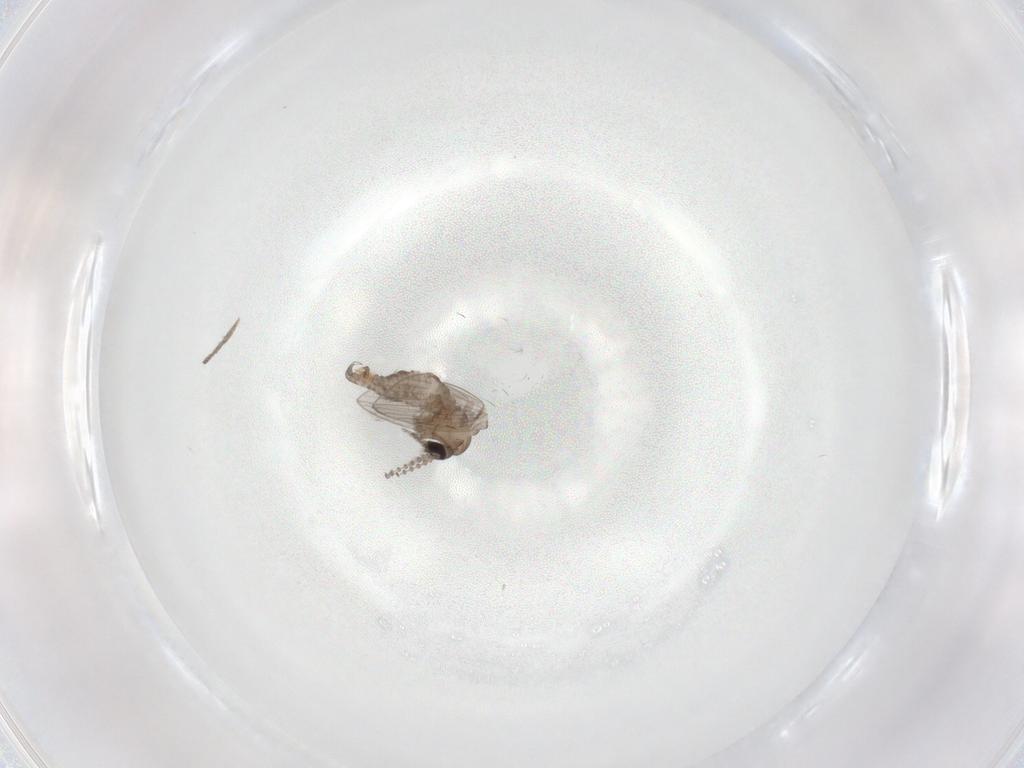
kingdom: Animalia
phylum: Arthropoda
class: Insecta
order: Diptera
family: Psychodidae
